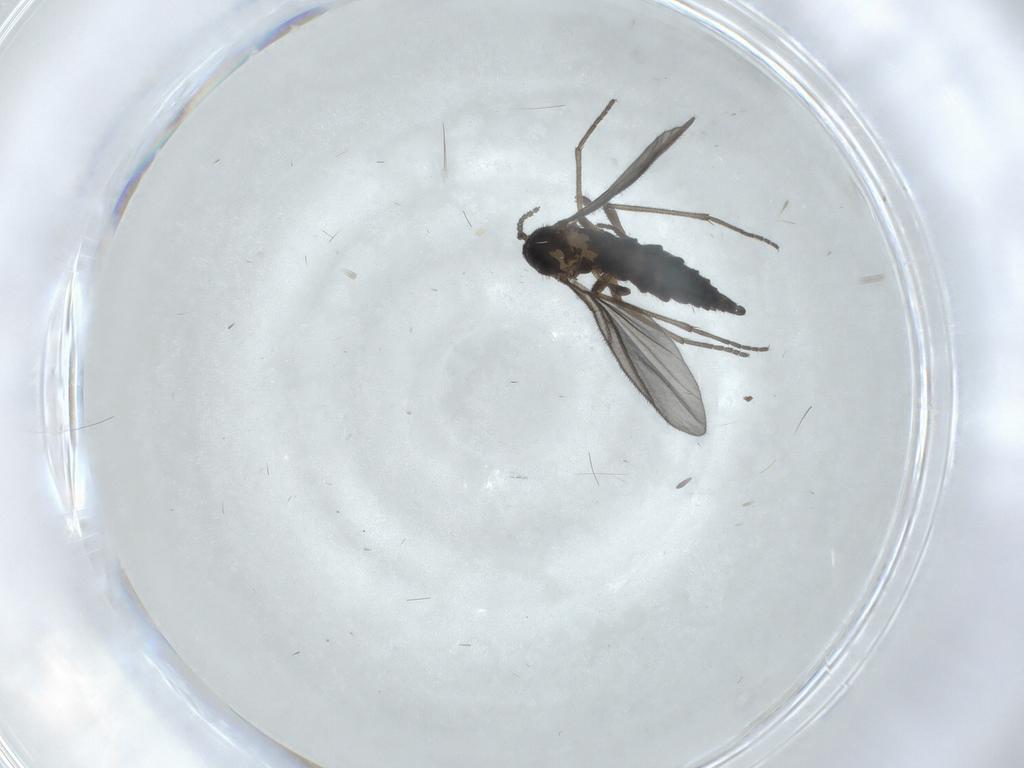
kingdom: Animalia
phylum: Arthropoda
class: Insecta
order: Diptera
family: Sciaridae
